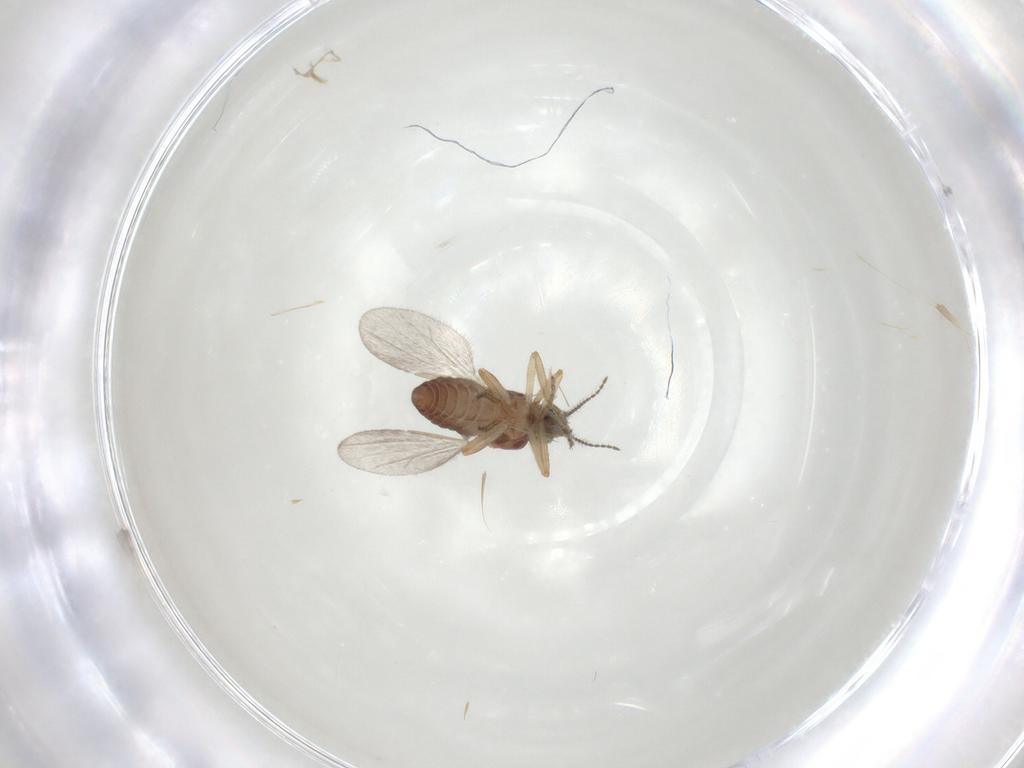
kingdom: Animalia
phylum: Arthropoda
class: Insecta
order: Diptera
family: Ceratopogonidae
